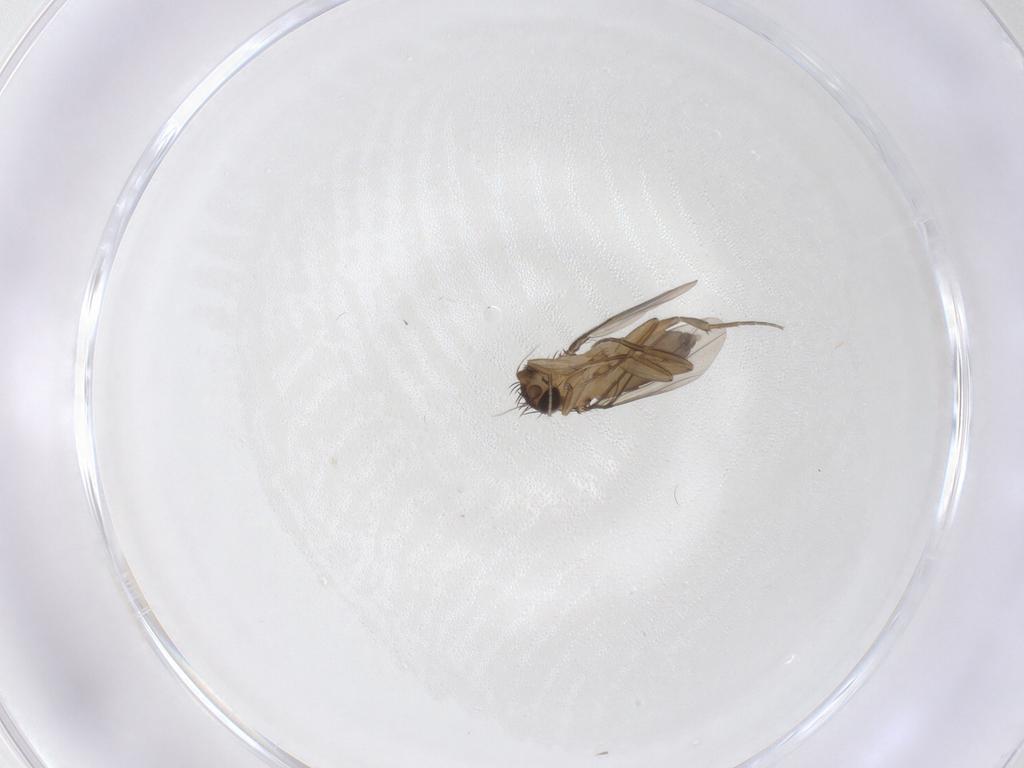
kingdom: Animalia
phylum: Arthropoda
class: Insecta
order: Diptera
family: Phoridae
